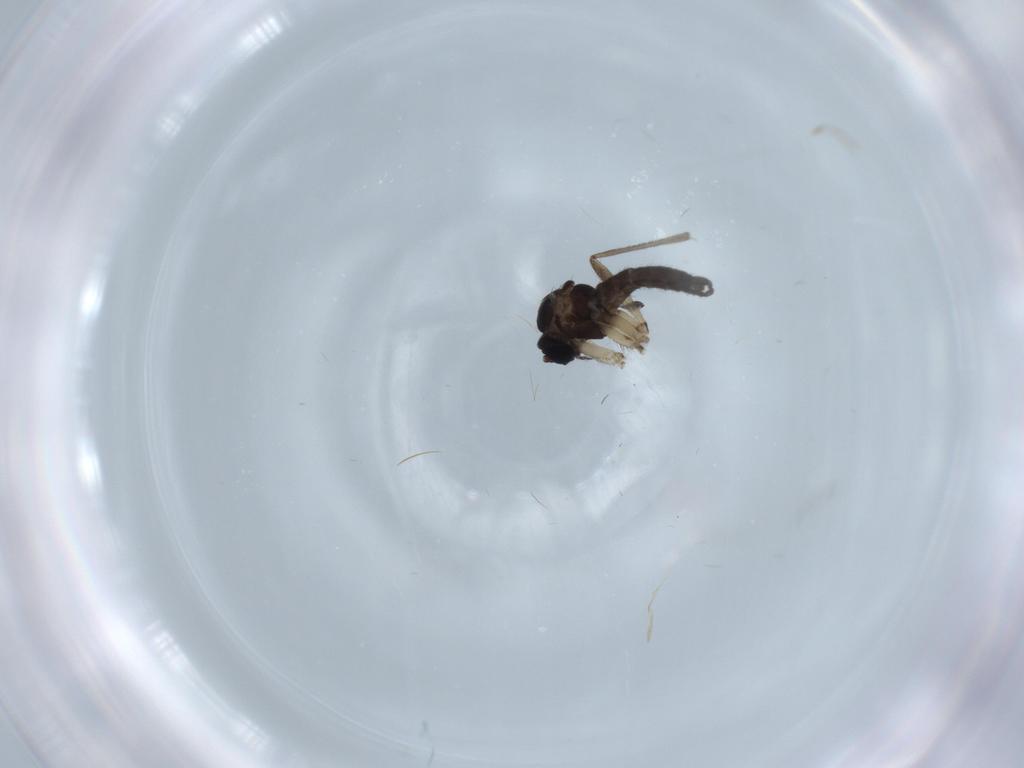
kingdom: Animalia
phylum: Arthropoda
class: Insecta
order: Diptera
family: Sciaridae
